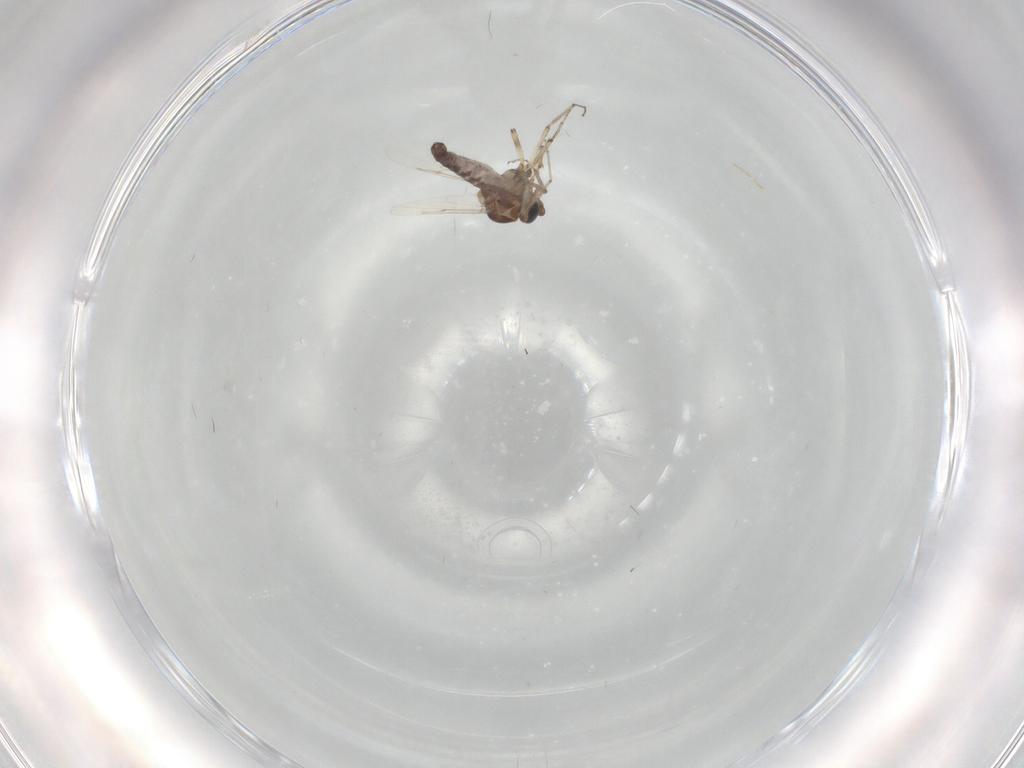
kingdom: Animalia
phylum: Arthropoda
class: Insecta
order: Diptera
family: Ceratopogonidae
